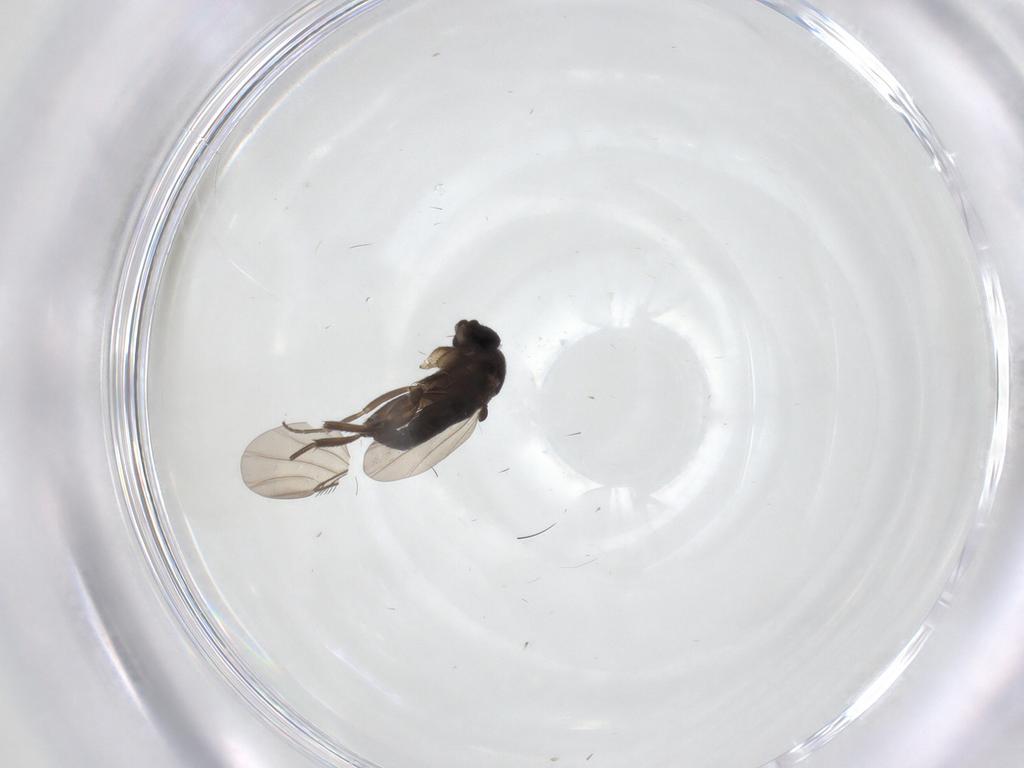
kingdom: Animalia
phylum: Arthropoda
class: Insecta
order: Diptera
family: Phoridae
